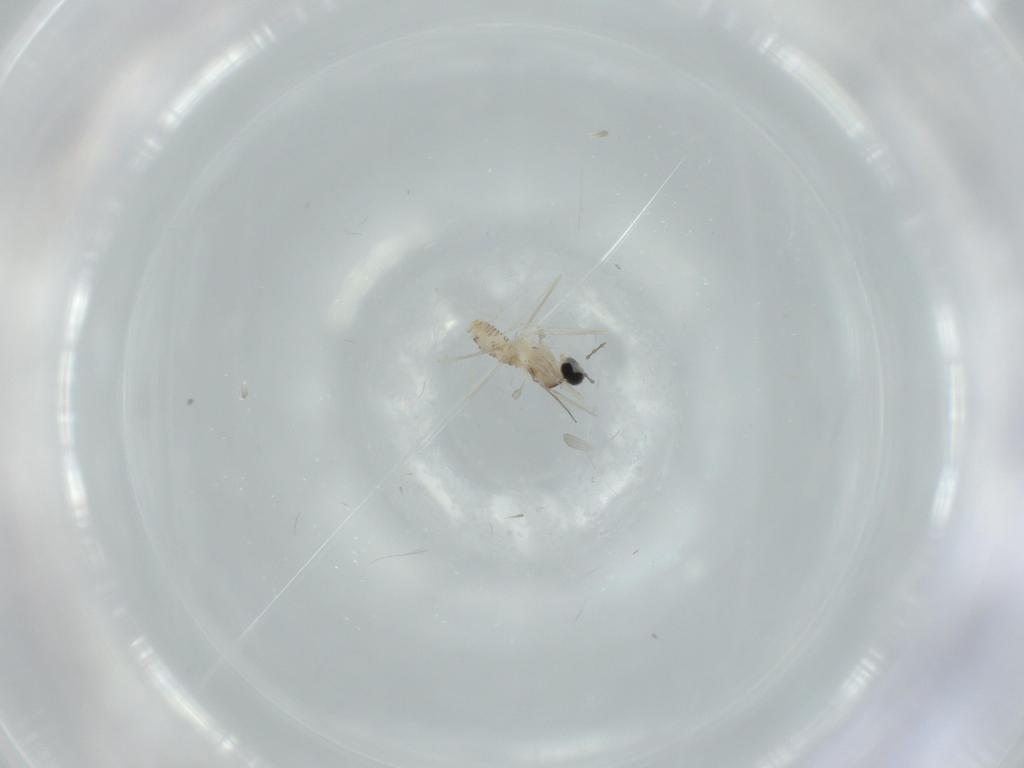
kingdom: Animalia
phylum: Arthropoda
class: Insecta
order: Diptera
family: Cecidomyiidae
